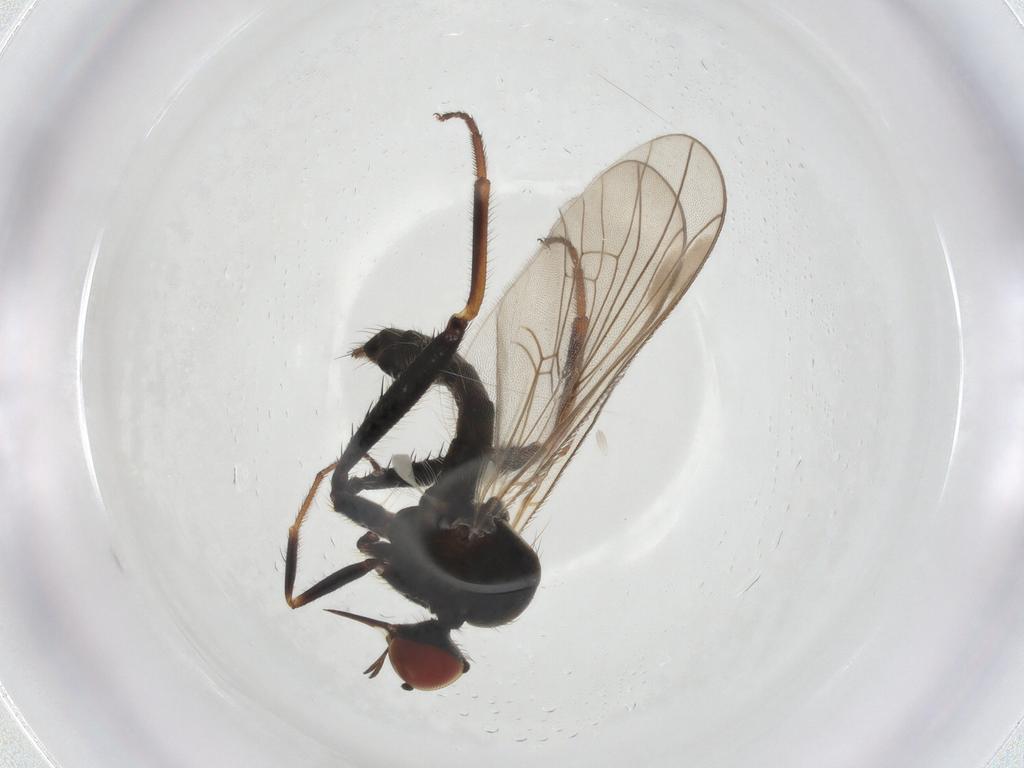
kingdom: Animalia
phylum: Arthropoda
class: Insecta
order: Diptera
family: Hybotidae
